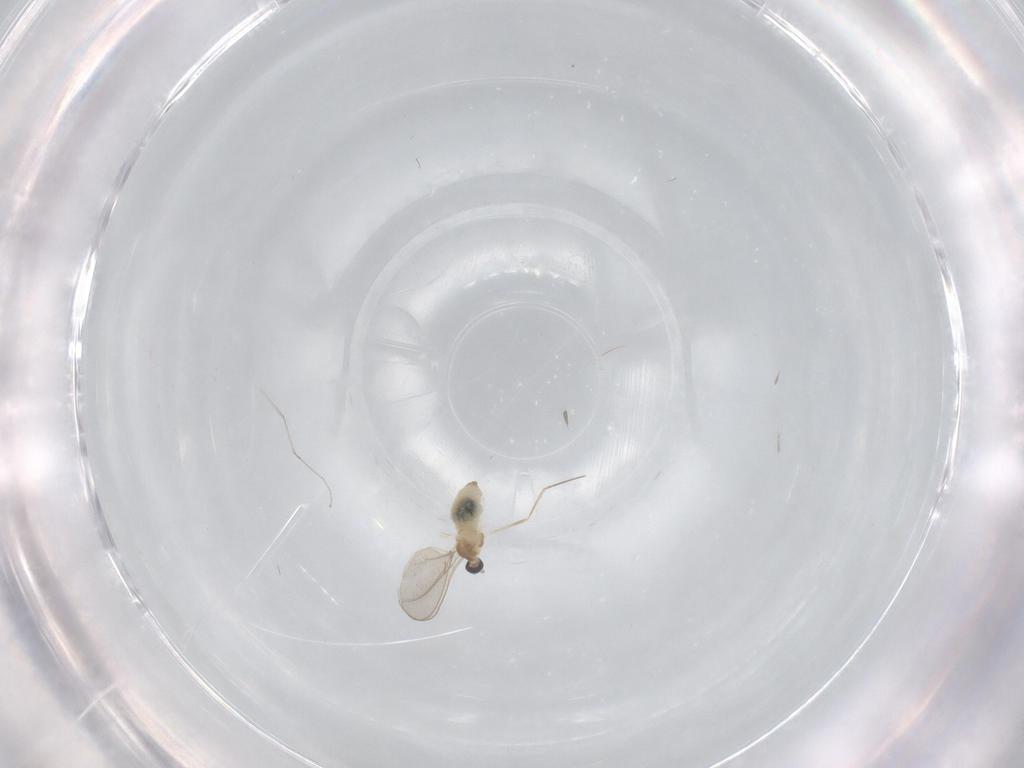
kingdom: Animalia
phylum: Arthropoda
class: Insecta
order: Diptera
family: Cecidomyiidae
